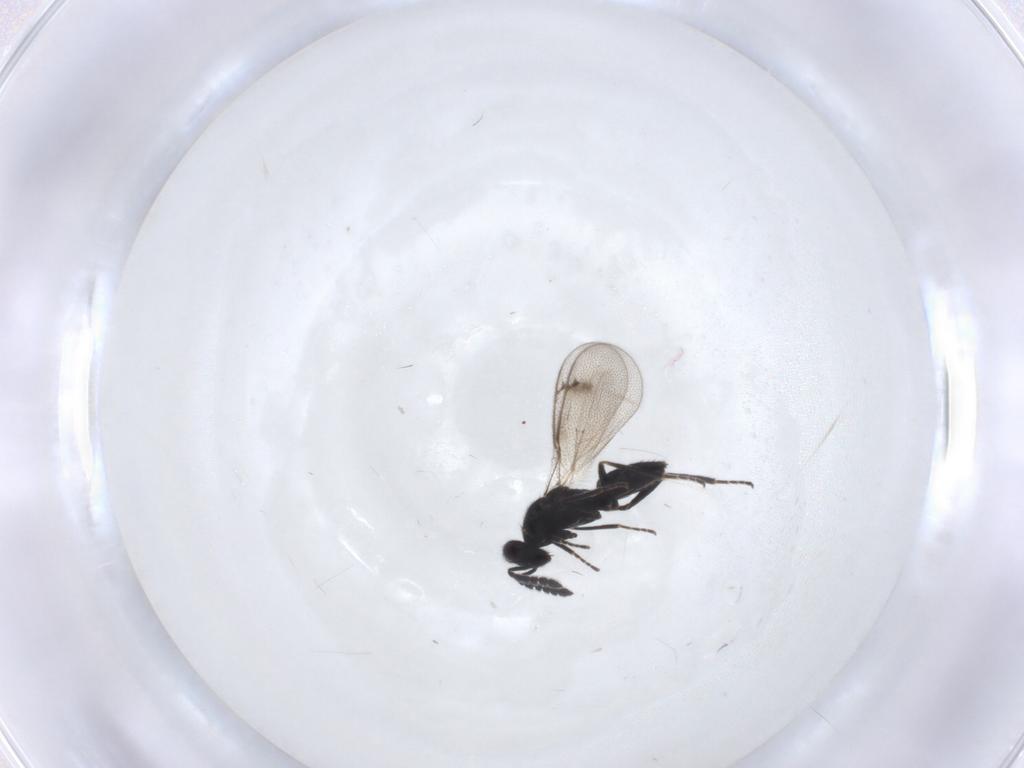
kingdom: Animalia
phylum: Arthropoda
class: Insecta
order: Hymenoptera
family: Eulophidae
